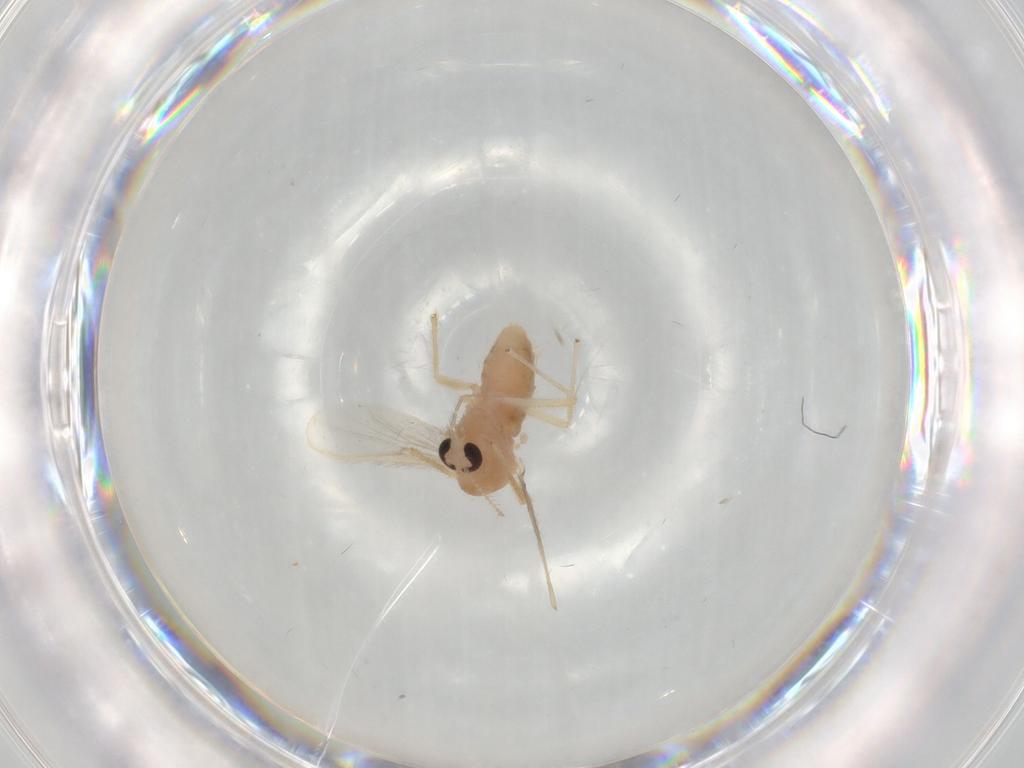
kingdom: Animalia
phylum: Arthropoda
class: Insecta
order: Diptera
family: Chironomidae
